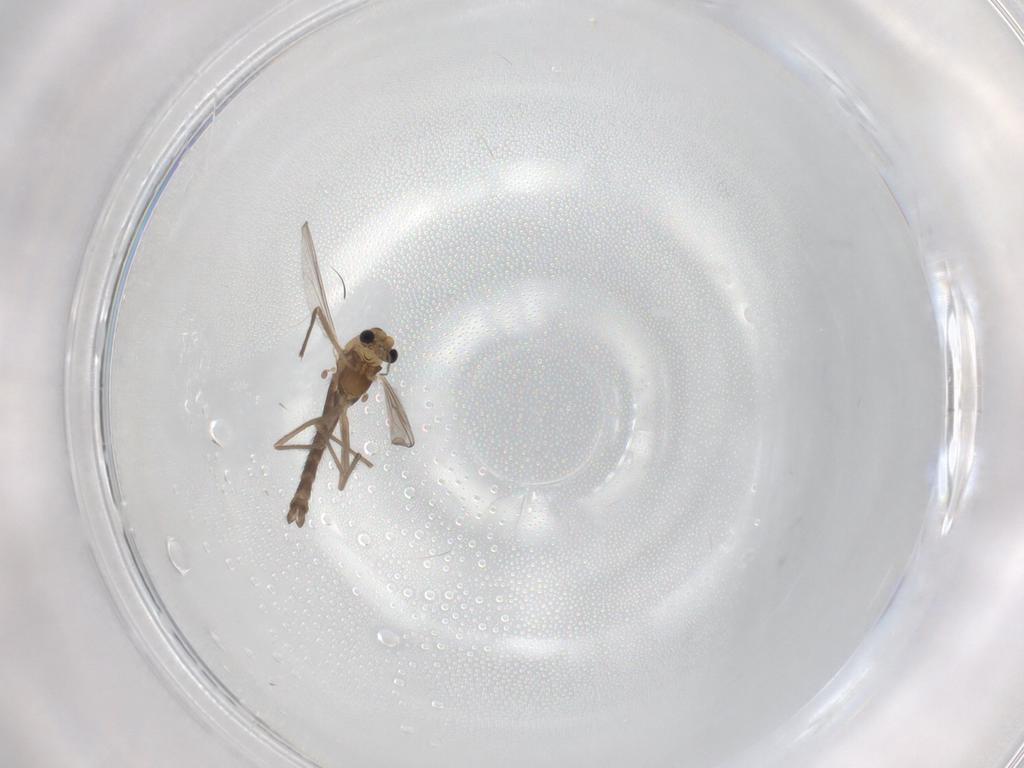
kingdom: Animalia
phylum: Arthropoda
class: Insecta
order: Diptera
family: Chironomidae
